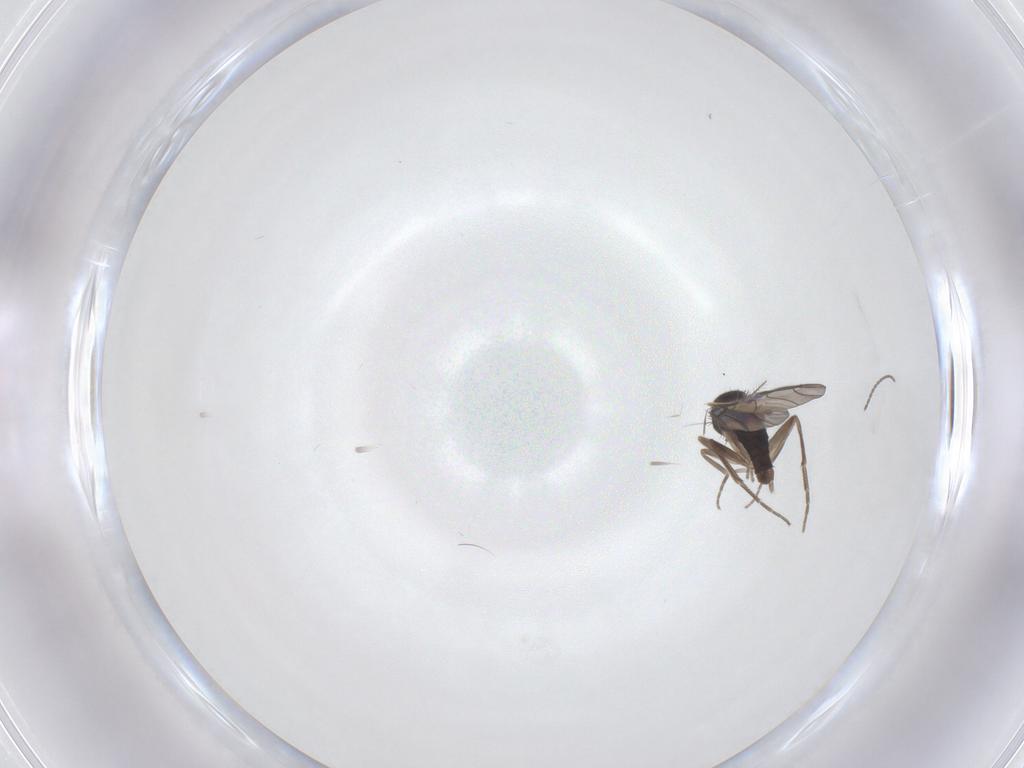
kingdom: Animalia
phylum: Arthropoda
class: Insecta
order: Diptera
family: Phoridae
